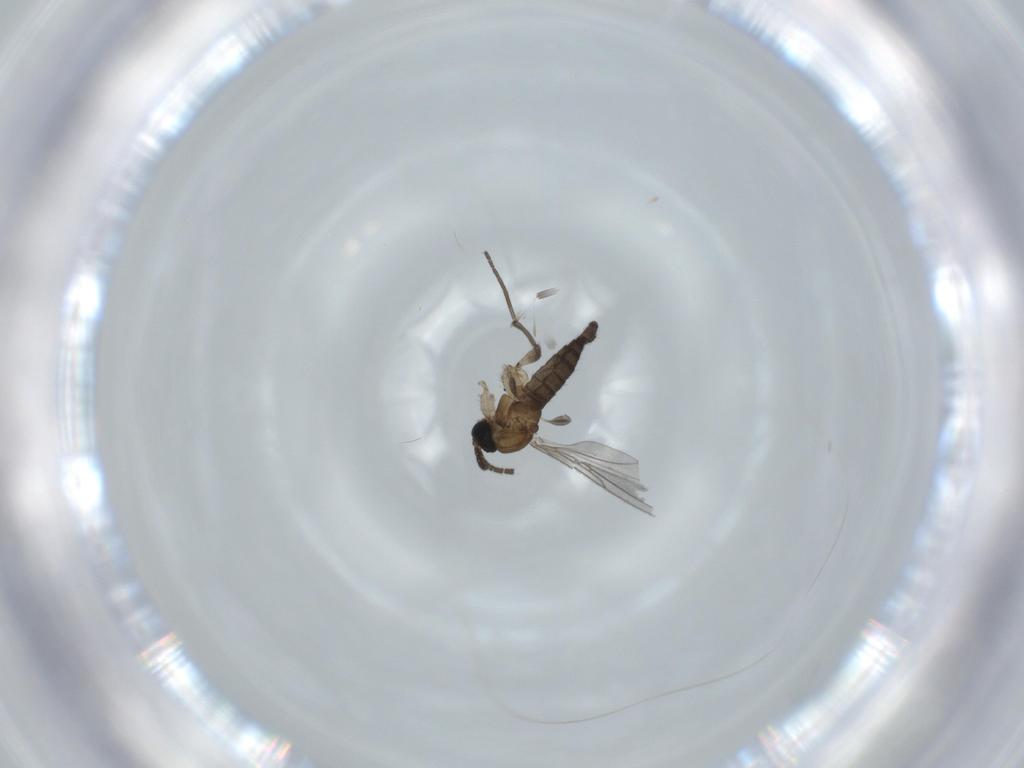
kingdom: Animalia
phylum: Arthropoda
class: Insecta
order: Diptera
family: Sciaridae
